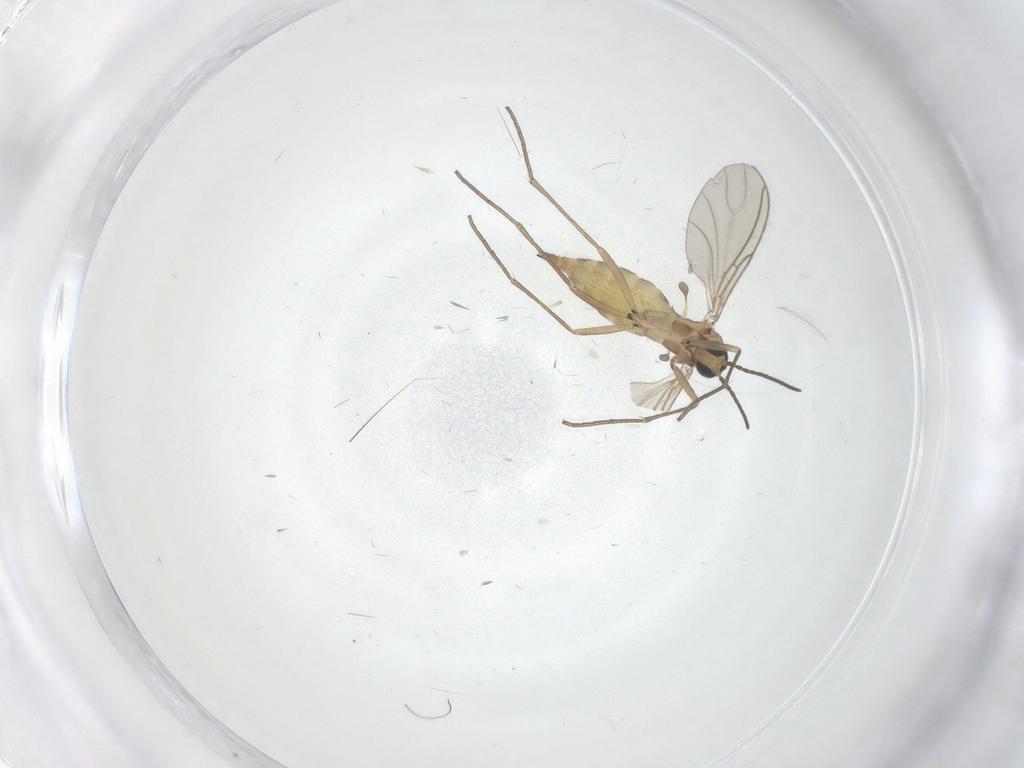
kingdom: Animalia
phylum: Arthropoda
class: Insecta
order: Diptera
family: Sciaridae
